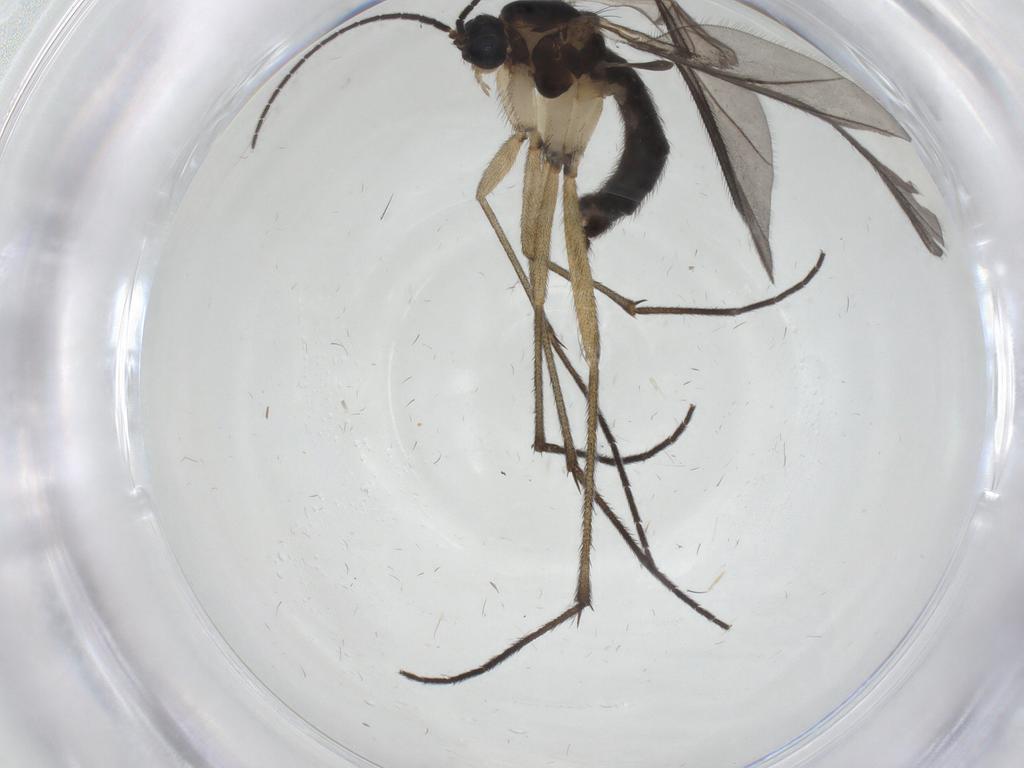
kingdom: Animalia
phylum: Arthropoda
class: Insecta
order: Diptera
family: Sciaridae
